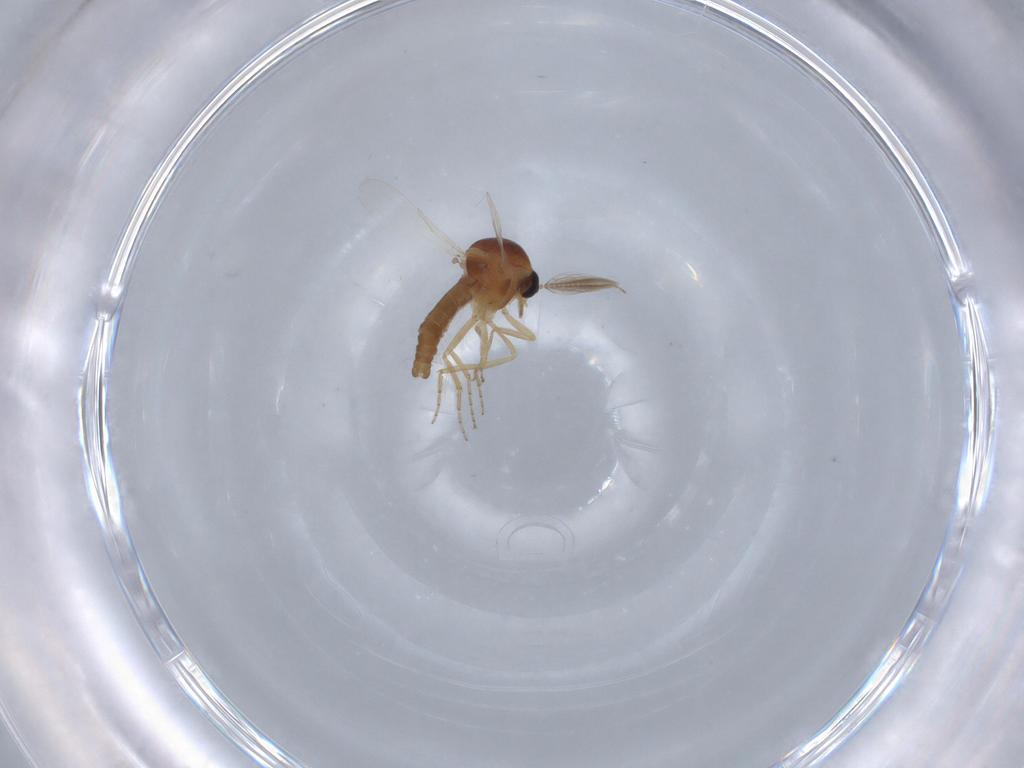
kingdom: Animalia
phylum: Arthropoda
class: Insecta
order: Diptera
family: Ceratopogonidae
